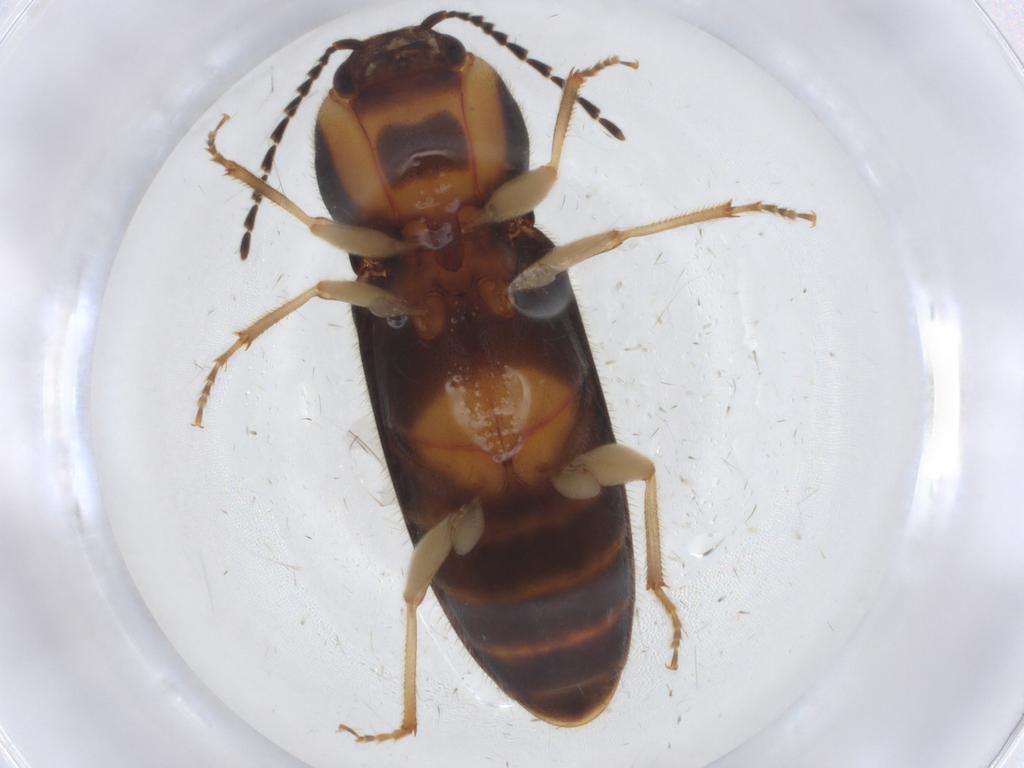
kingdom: Animalia
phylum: Arthropoda
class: Insecta
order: Coleoptera
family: Elateridae
